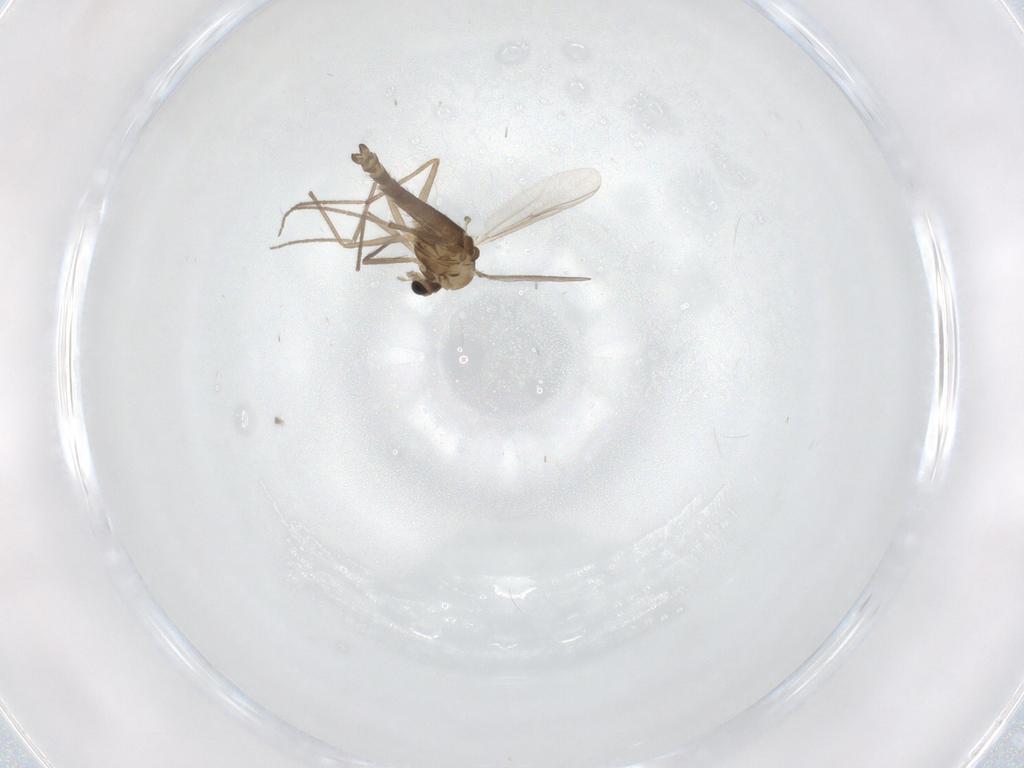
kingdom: Animalia
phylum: Arthropoda
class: Insecta
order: Diptera
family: Chironomidae
